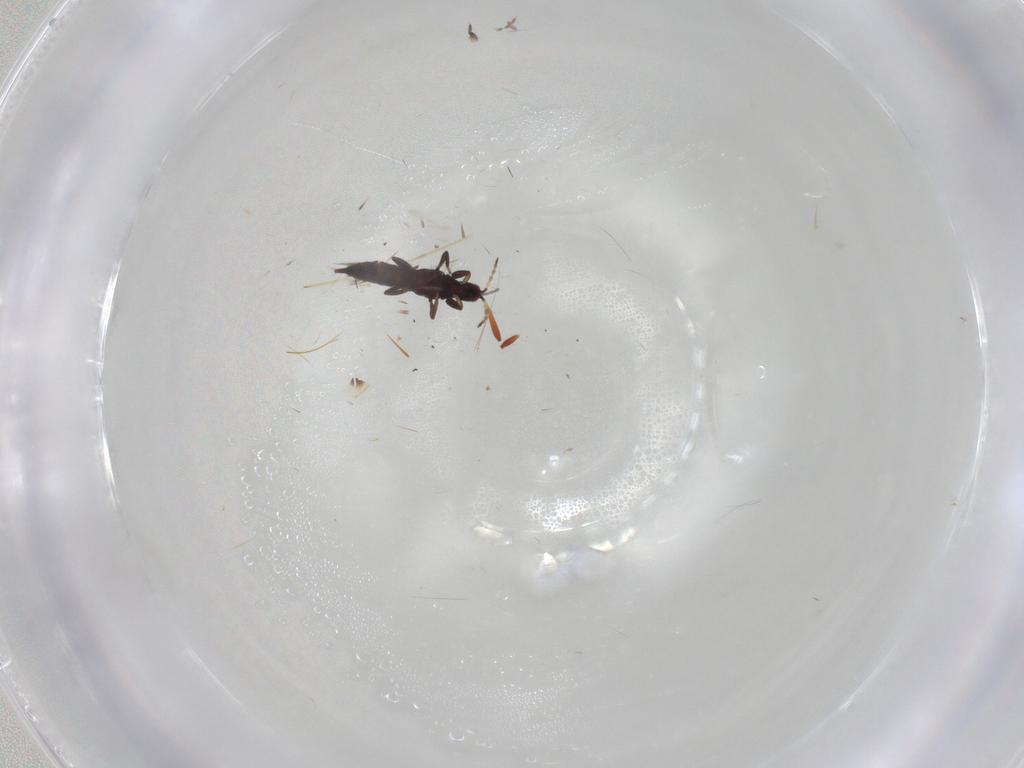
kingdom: Animalia
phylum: Arthropoda
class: Insecta
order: Thysanoptera
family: Phlaeothripidae
